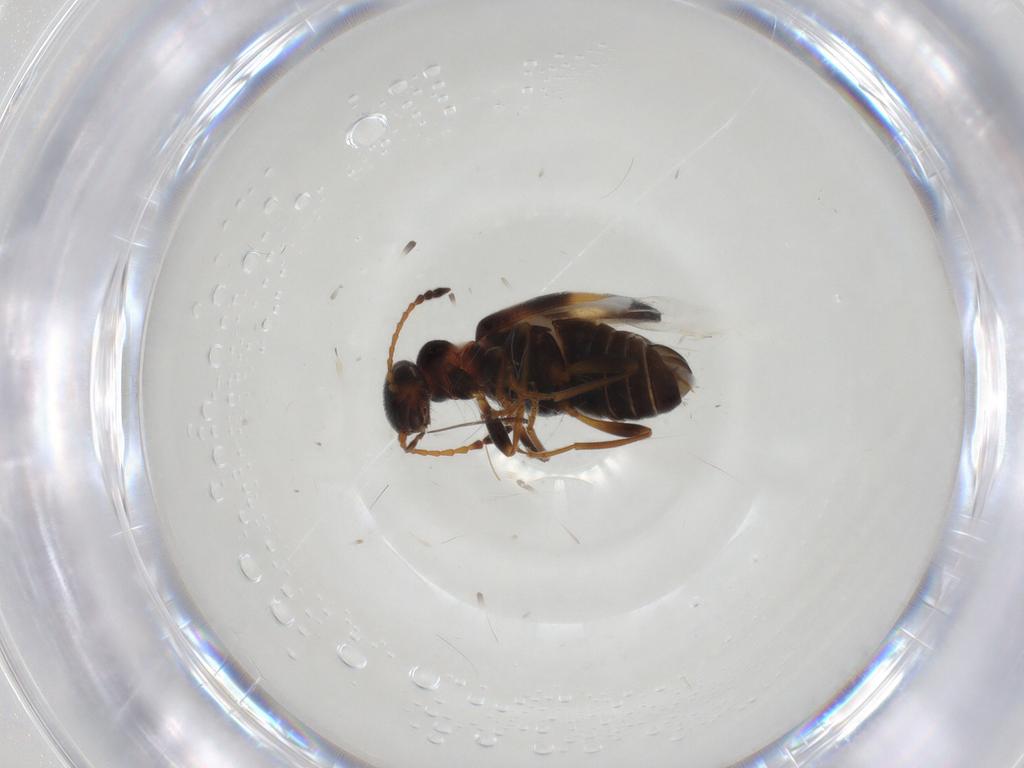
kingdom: Animalia
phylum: Arthropoda
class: Insecta
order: Coleoptera
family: Anthicidae
